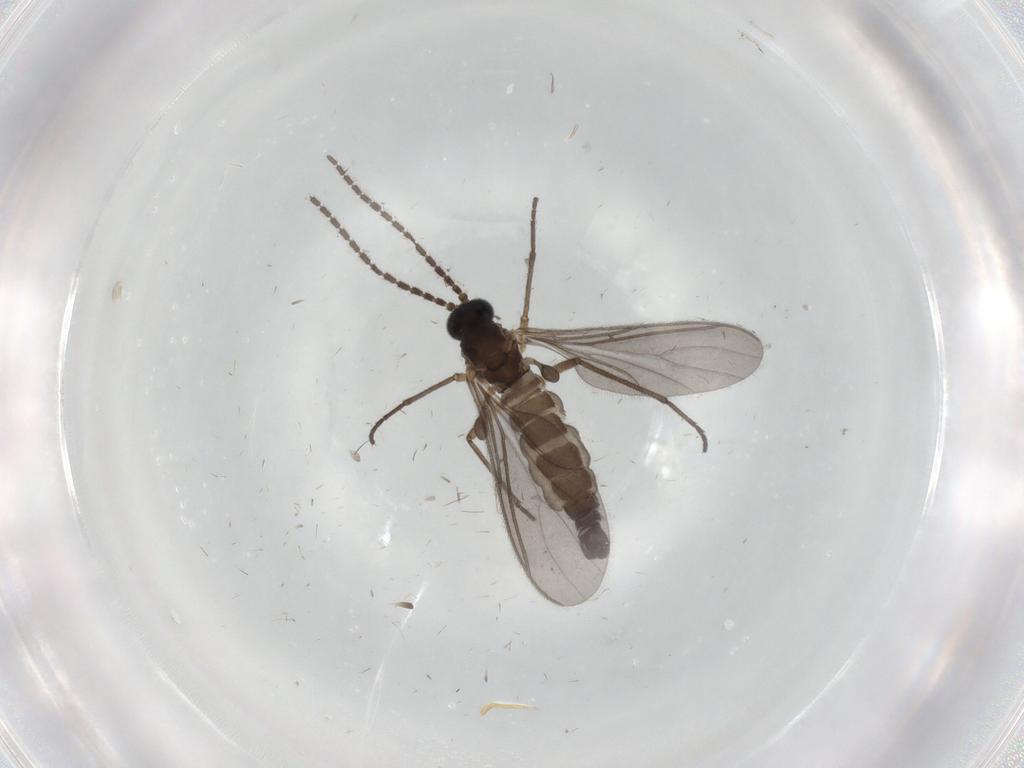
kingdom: Animalia
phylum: Arthropoda
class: Insecta
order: Diptera
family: Sciaridae
